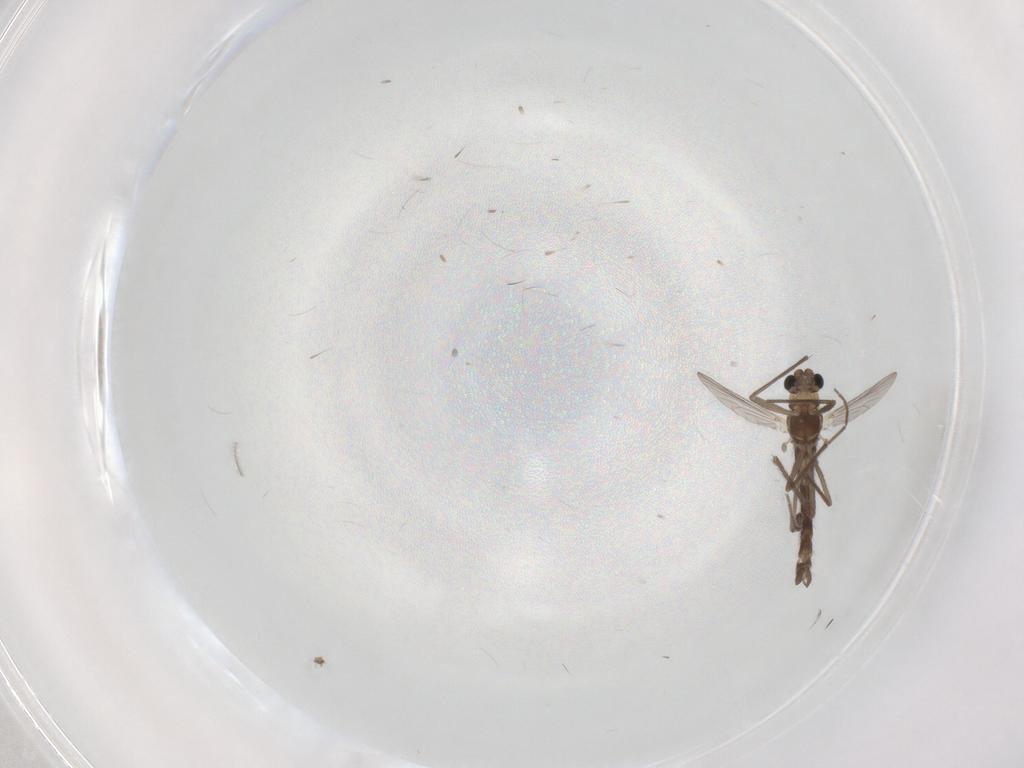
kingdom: Animalia
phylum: Arthropoda
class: Insecta
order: Diptera
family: Chironomidae
